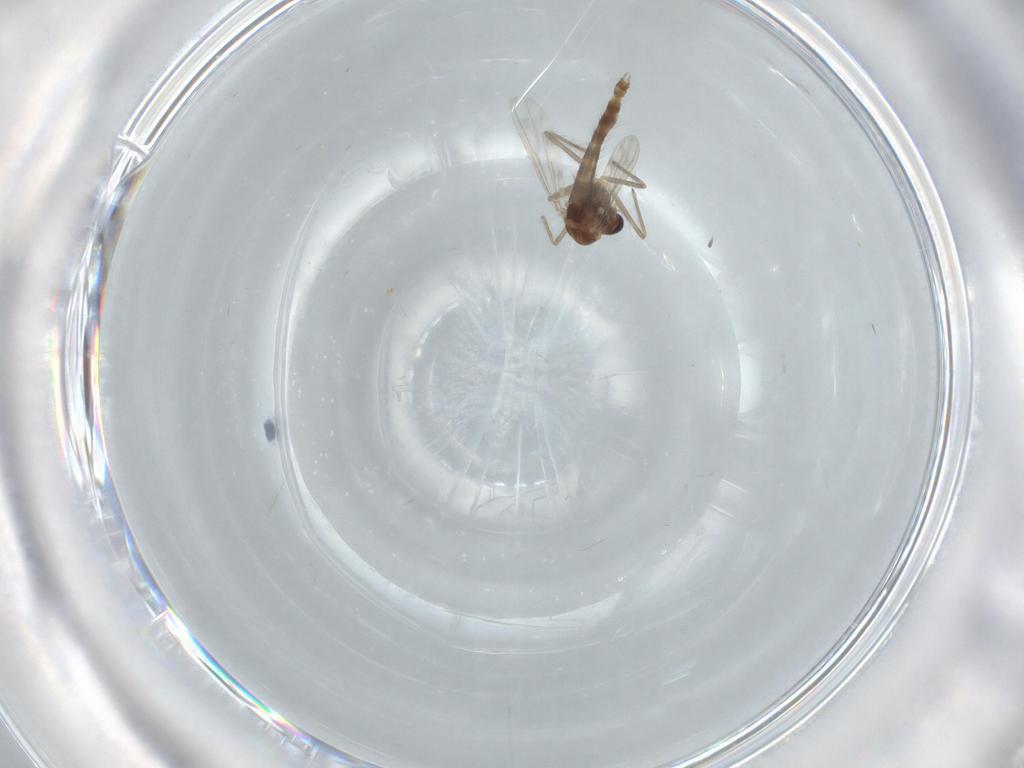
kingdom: Animalia
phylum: Arthropoda
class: Insecta
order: Diptera
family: Chironomidae
